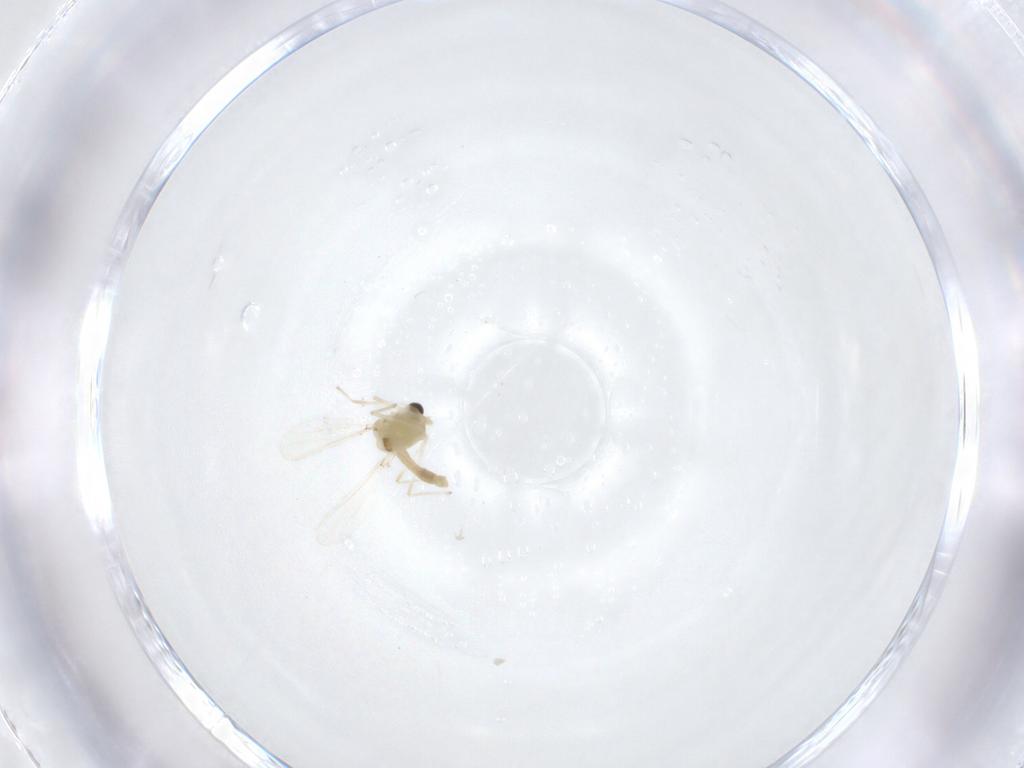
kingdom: Animalia
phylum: Arthropoda
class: Insecta
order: Diptera
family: Chironomidae
